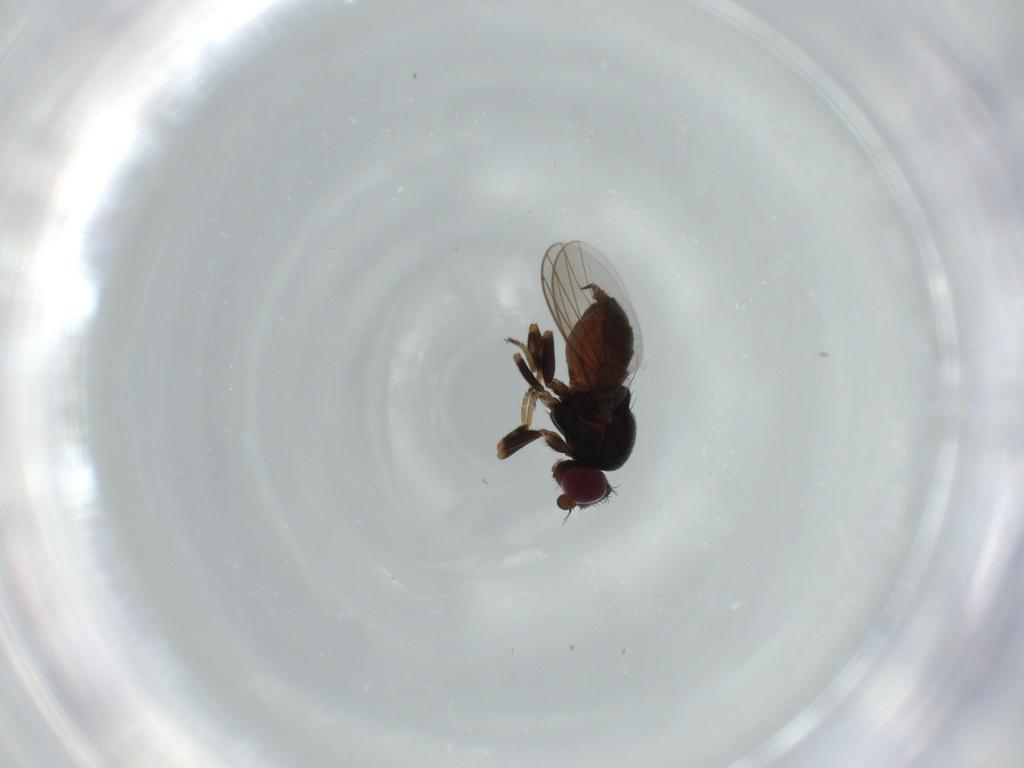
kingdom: Animalia
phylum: Arthropoda
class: Insecta
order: Diptera
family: Chloropidae
